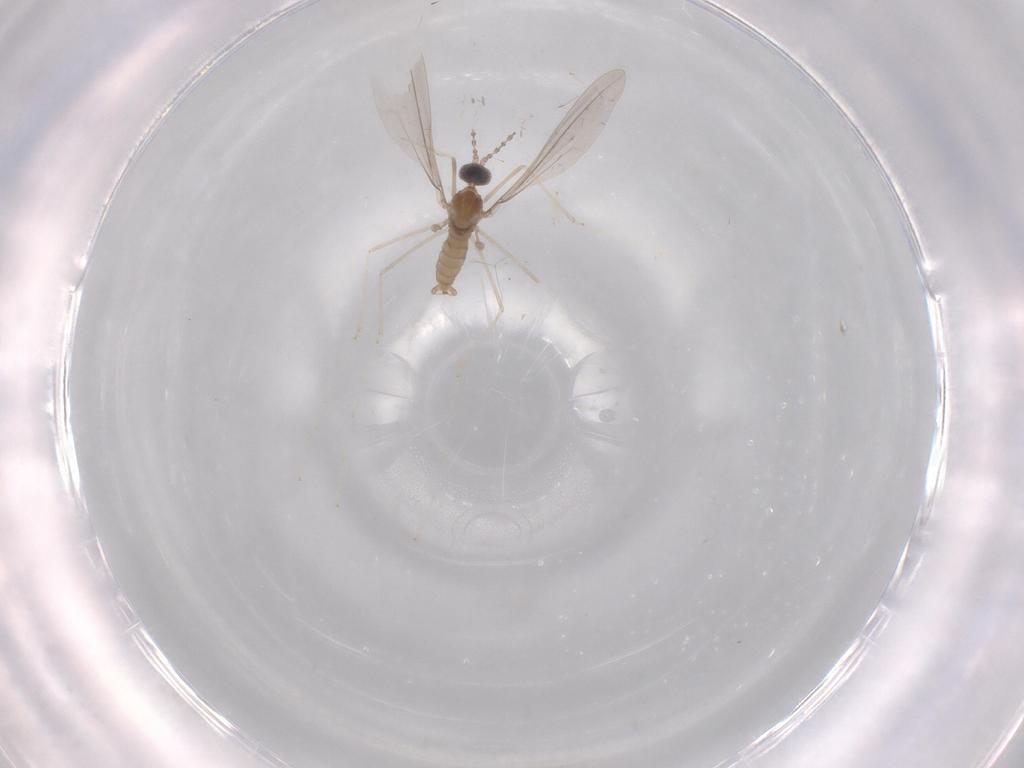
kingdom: Animalia
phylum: Arthropoda
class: Insecta
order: Diptera
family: Cecidomyiidae
